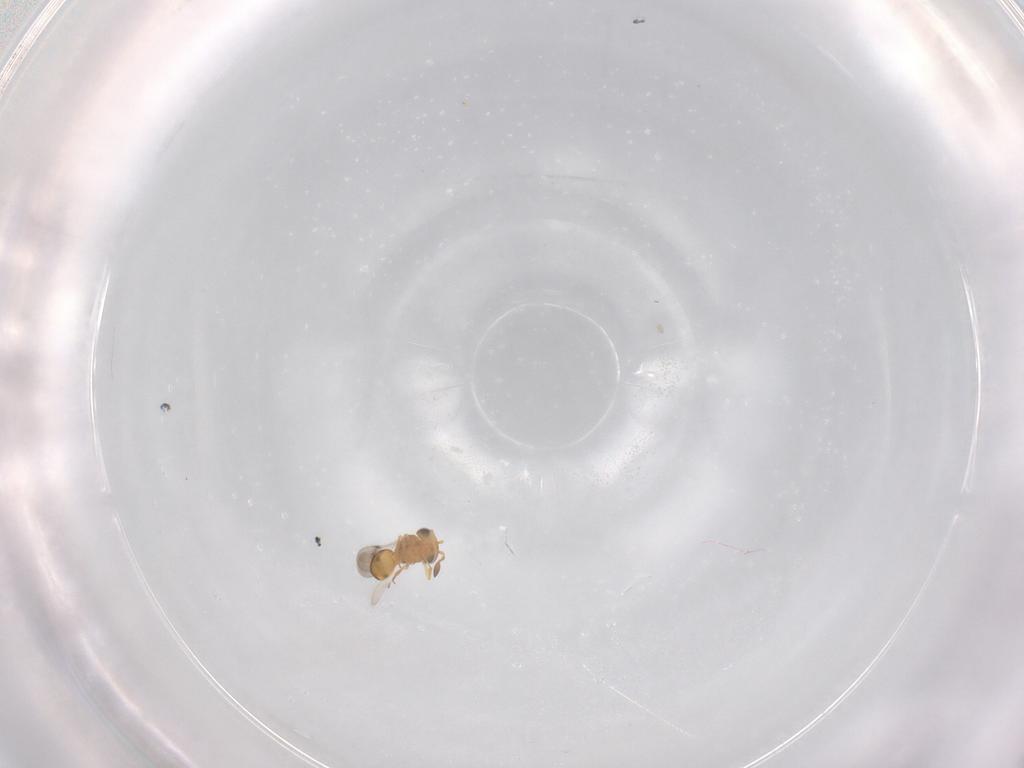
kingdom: Animalia
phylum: Arthropoda
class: Insecta
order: Hymenoptera
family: Scelionidae
